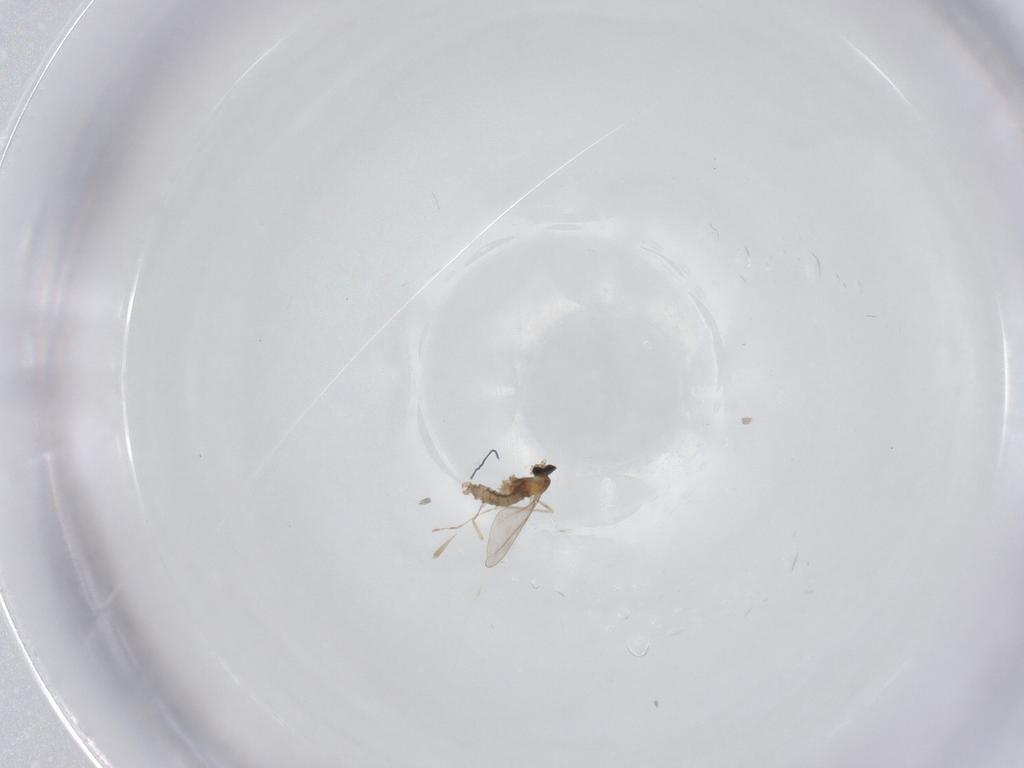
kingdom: Animalia
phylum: Arthropoda
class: Insecta
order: Diptera
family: Cecidomyiidae
